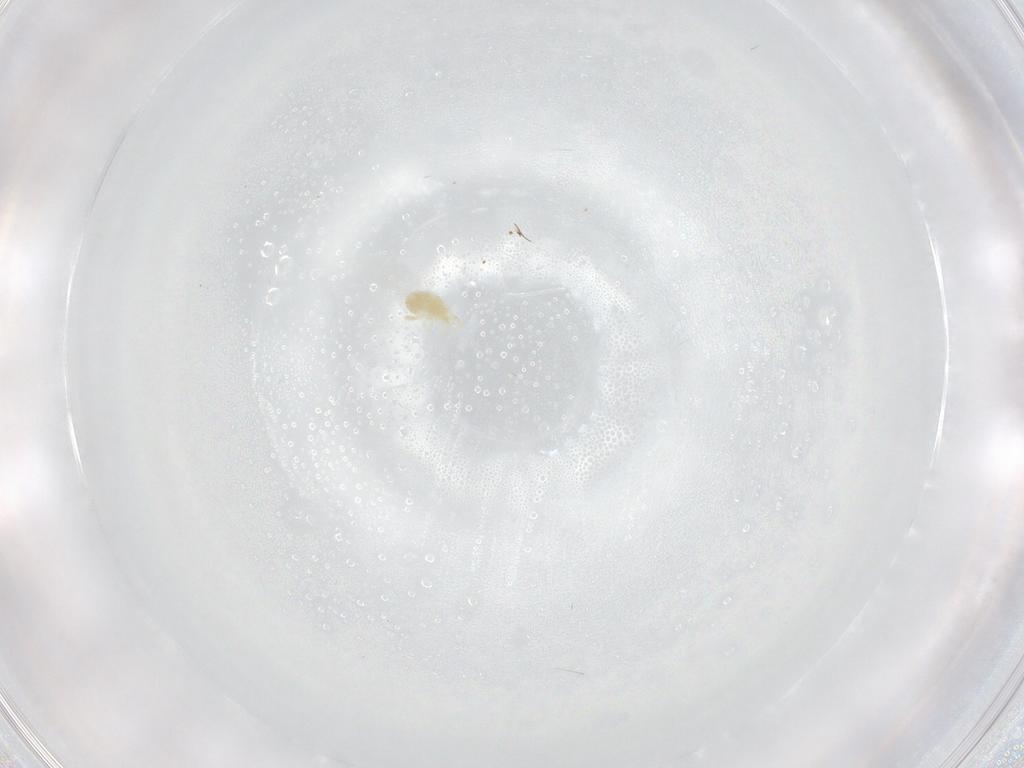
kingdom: Animalia
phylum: Arthropoda
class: Arachnida
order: Trombidiformes
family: Eupodidae
